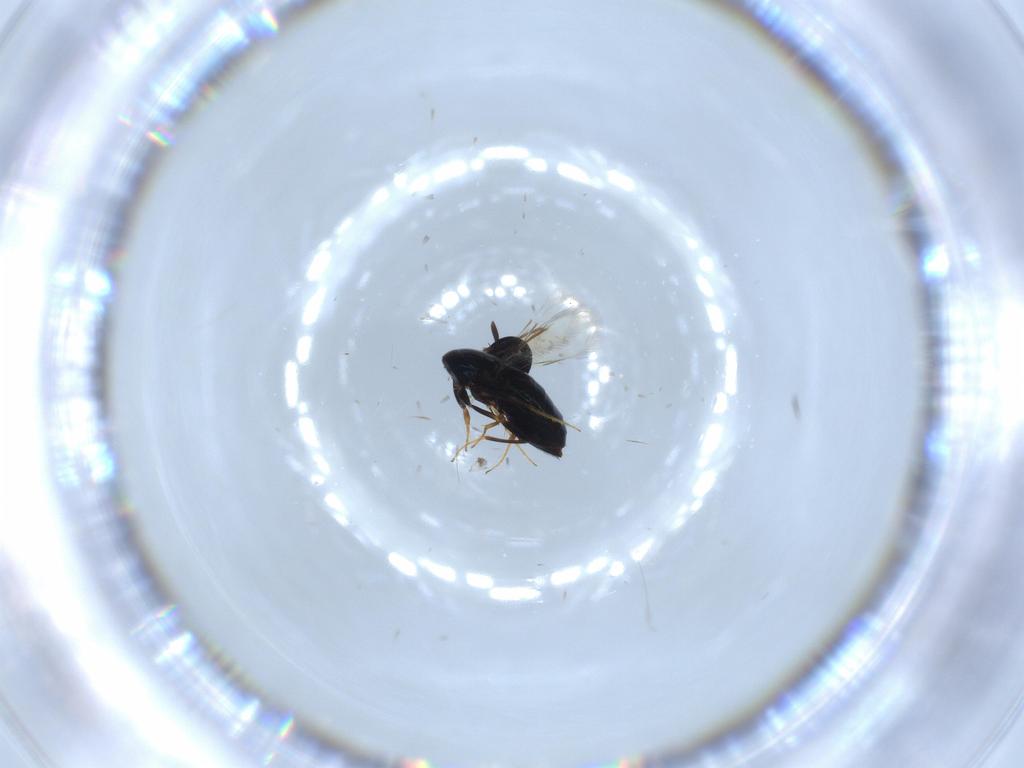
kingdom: Animalia
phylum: Arthropoda
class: Insecta
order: Hymenoptera
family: Signiphoridae
